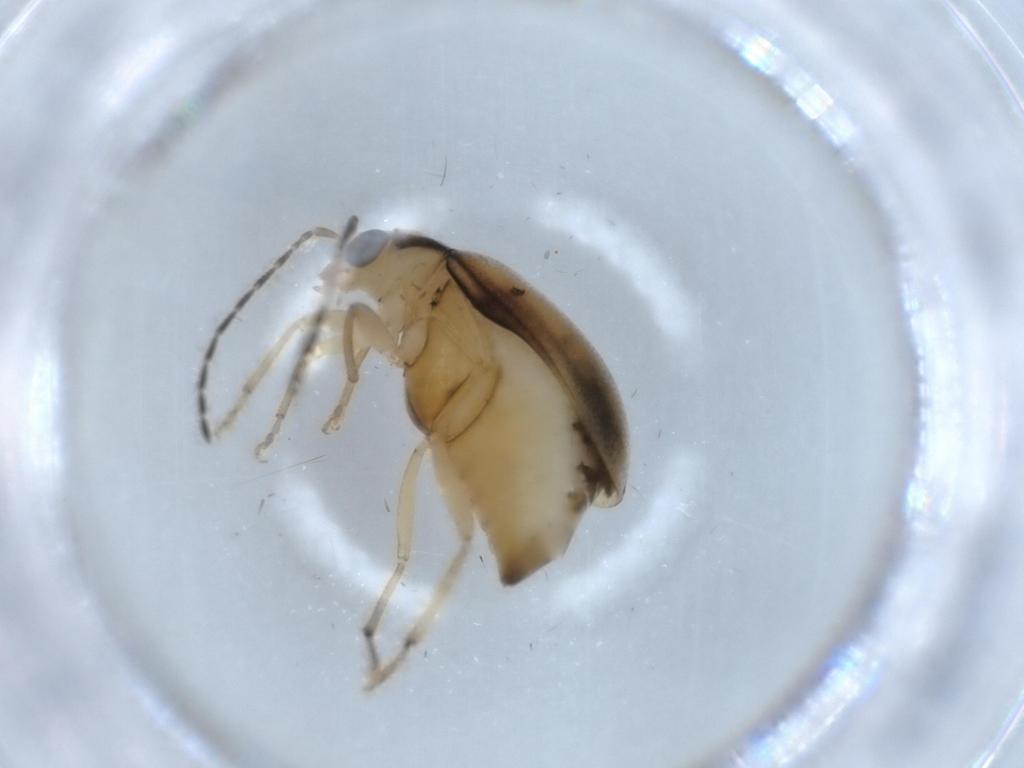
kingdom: Animalia
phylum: Arthropoda
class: Insecta
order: Coleoptera
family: Chrysomelidae
